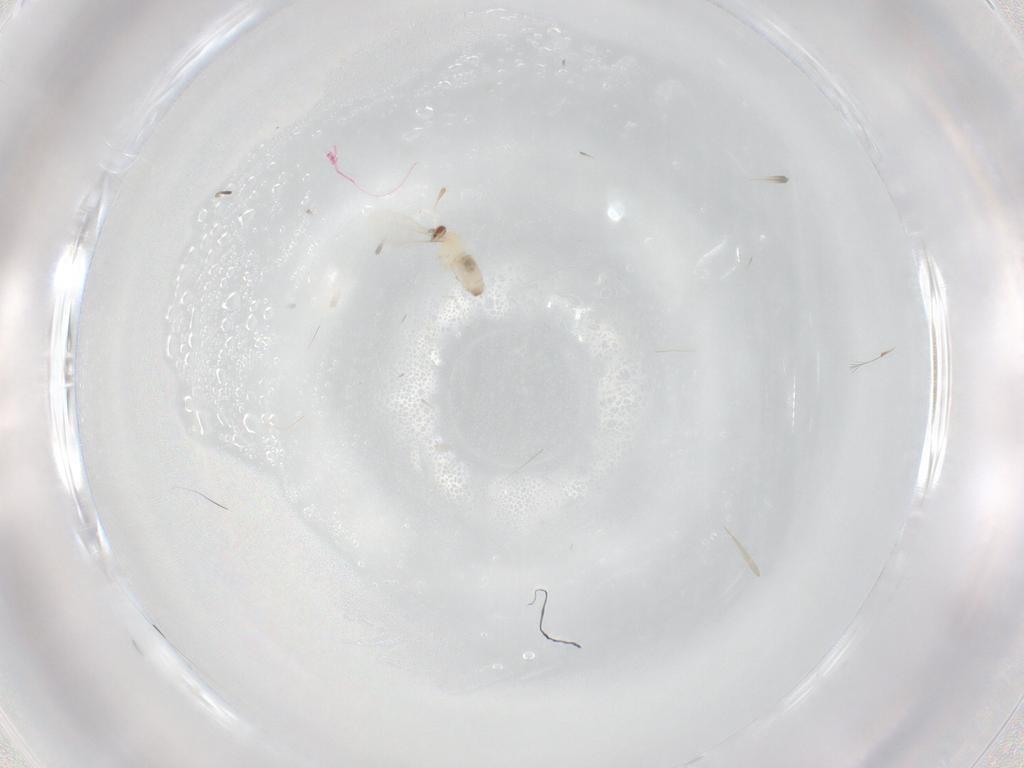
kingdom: Animalia
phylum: Arthropoda
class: Insecta
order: Diptera
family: Cecidomyiidae
